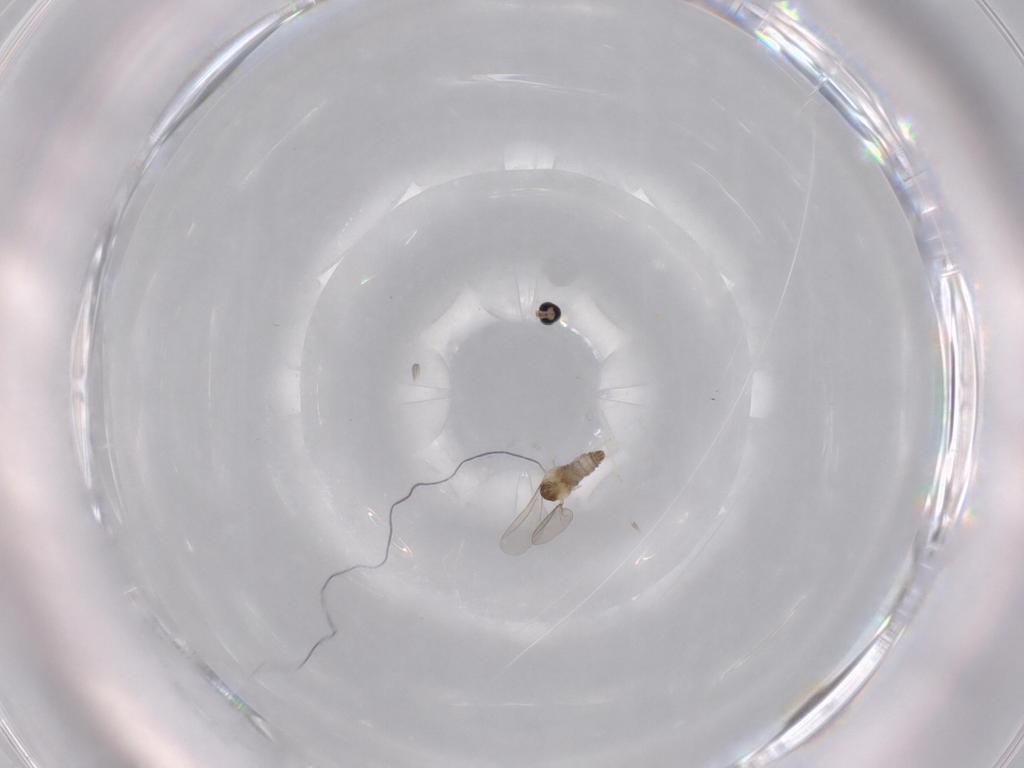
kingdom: Animalia
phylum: Arthropoda
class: Insecta
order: Diptera
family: Cecidomyiidae
